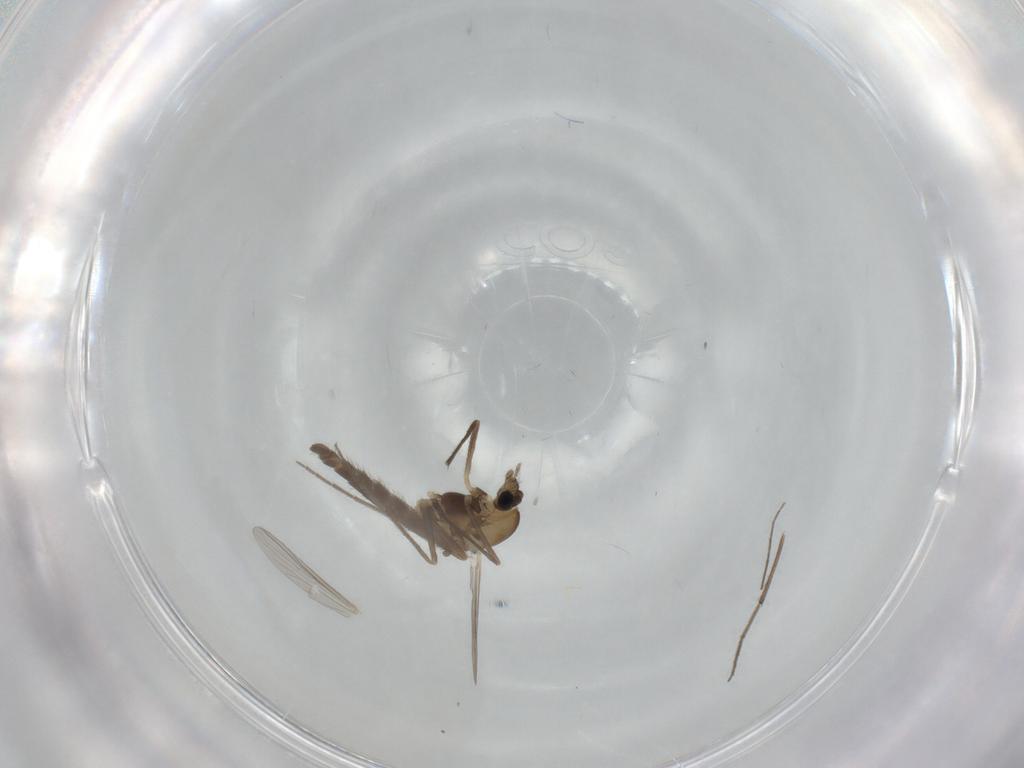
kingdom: Animalia
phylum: Arthropoda
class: Insecta
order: Diptera
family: Chironomidae
